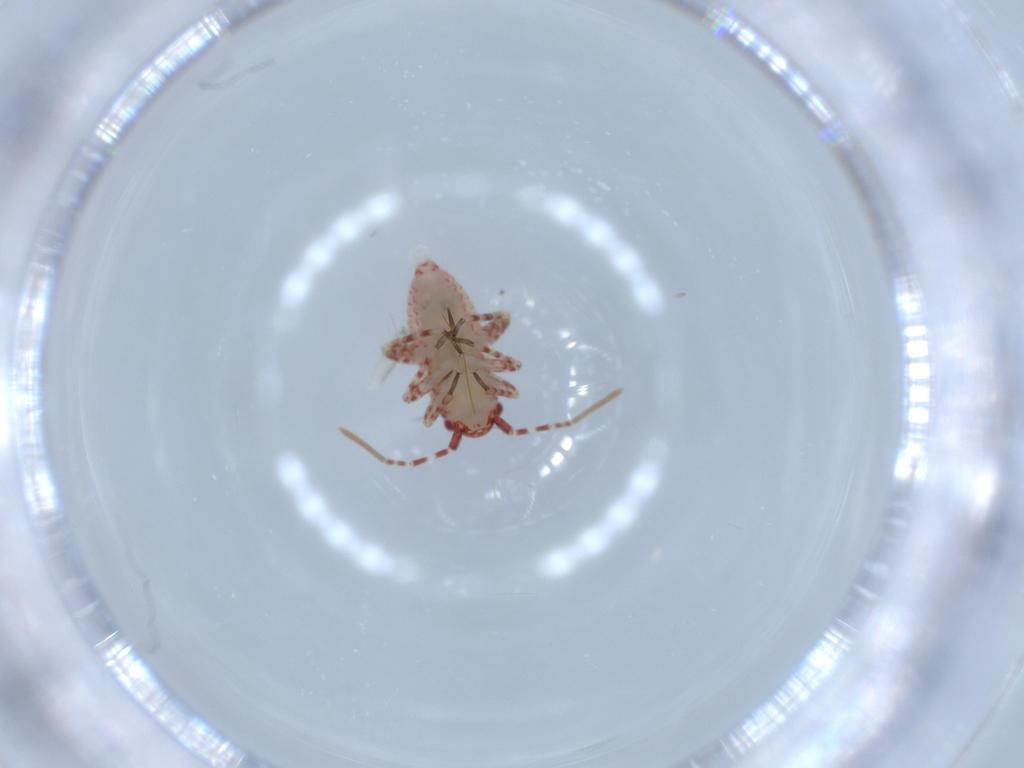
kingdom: Animalia
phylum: Arthropoda
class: Insecta
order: Hemiptera
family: Miridae
